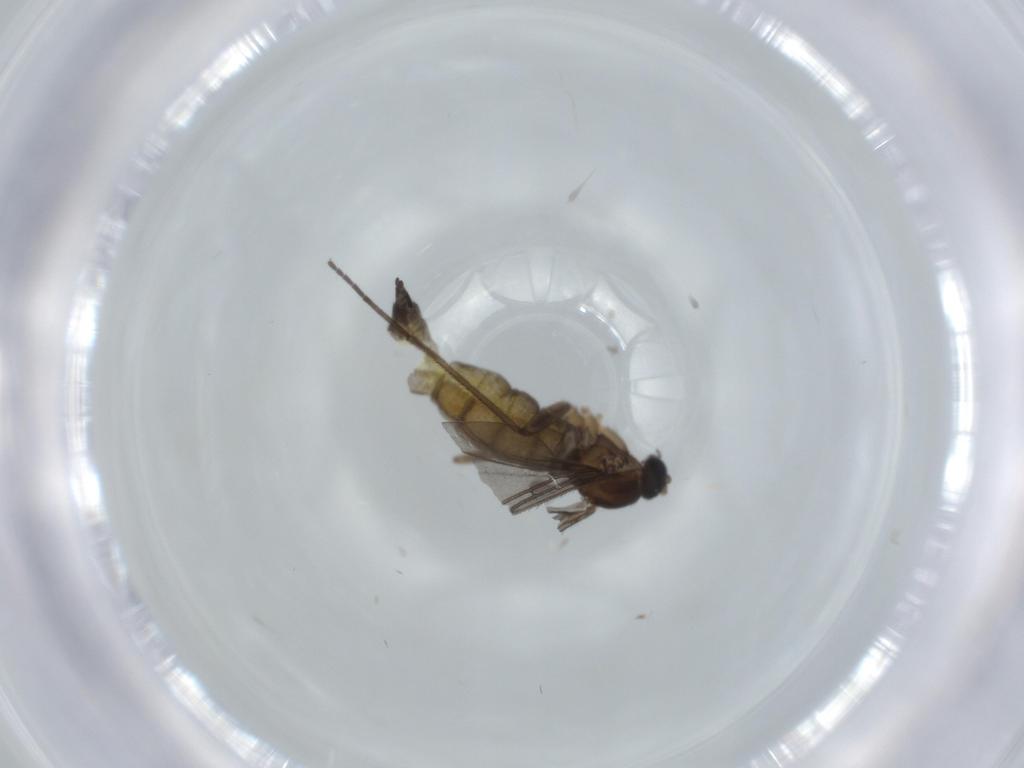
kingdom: Animalia
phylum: Arthropoda
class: Insecta
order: Diptera
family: Sciaridae
